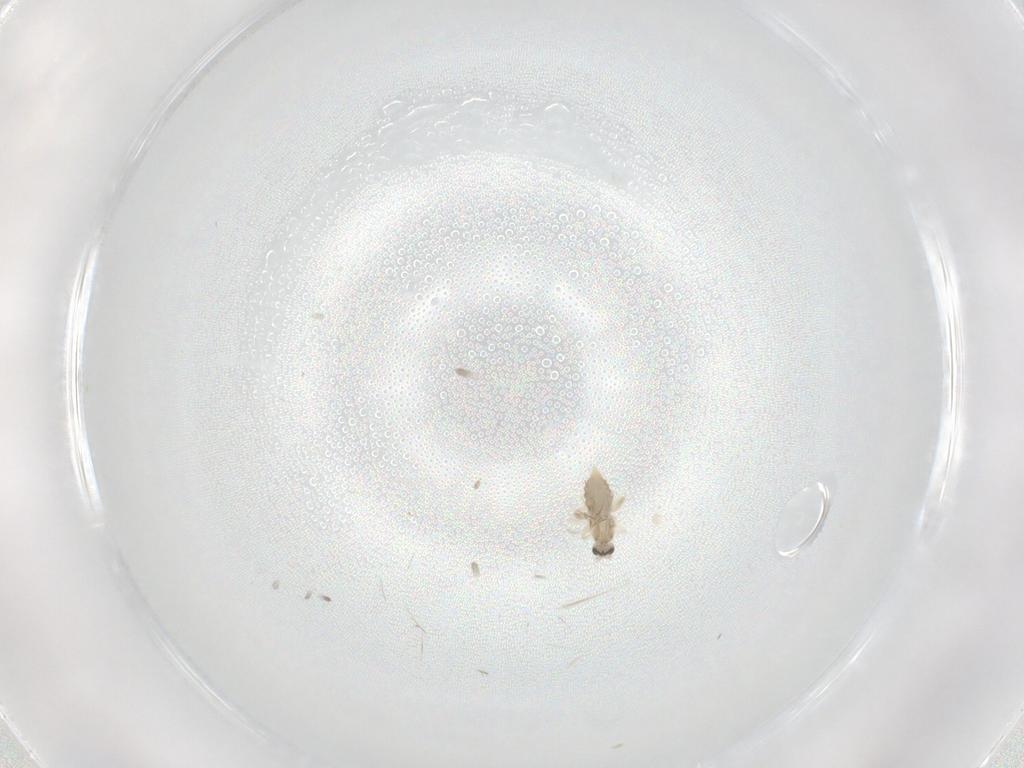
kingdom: Animalia
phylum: Arthropoda
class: Insecta
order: Diptera
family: Cecidomyiidae
